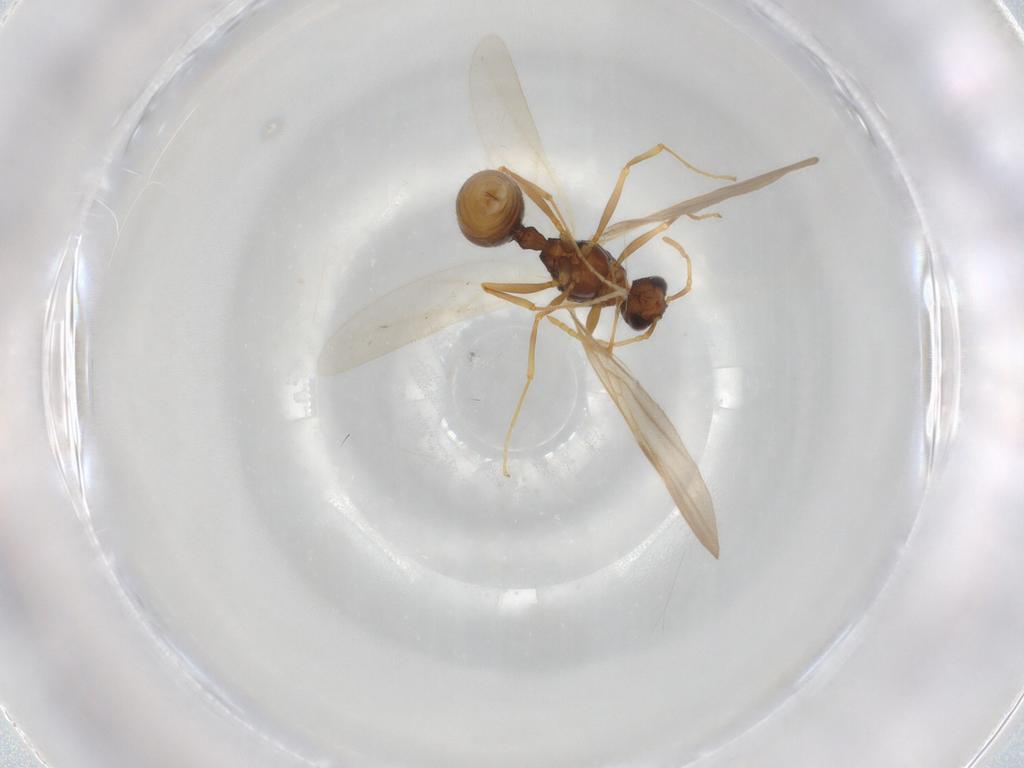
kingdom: Animalia
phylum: Arthropoda
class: Insecta
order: Hymenoptera
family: Formicidae
